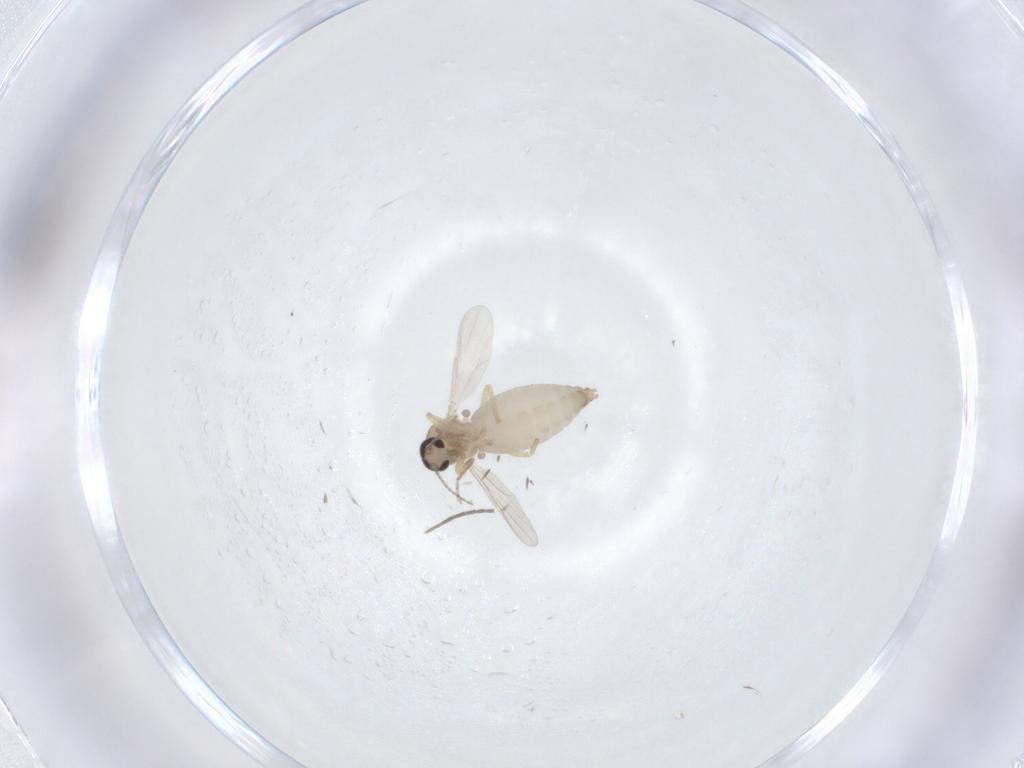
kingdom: Animalia
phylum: Arthropoda
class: Insecta
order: Diptera
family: Cecidomyiidae
